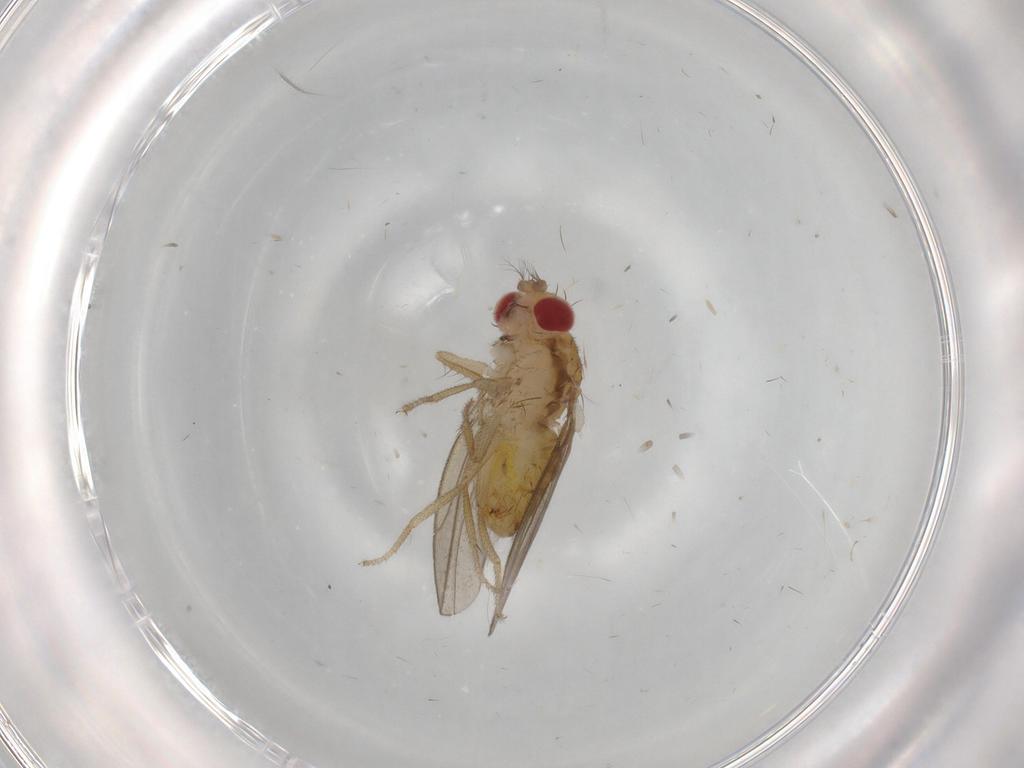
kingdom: Animalia
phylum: Arthropoda
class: Insecta
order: Diptera
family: Drosophilidae
